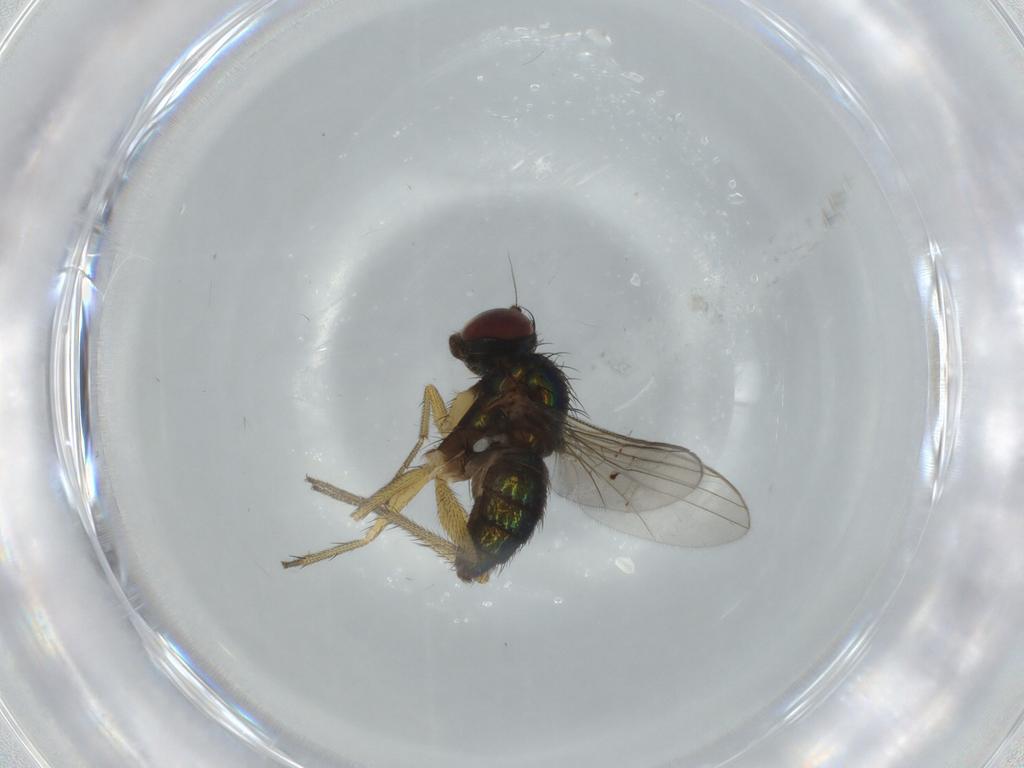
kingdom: Animalia
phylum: Arthropoda
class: Insecta
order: Diptera
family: Dolichopodidae
